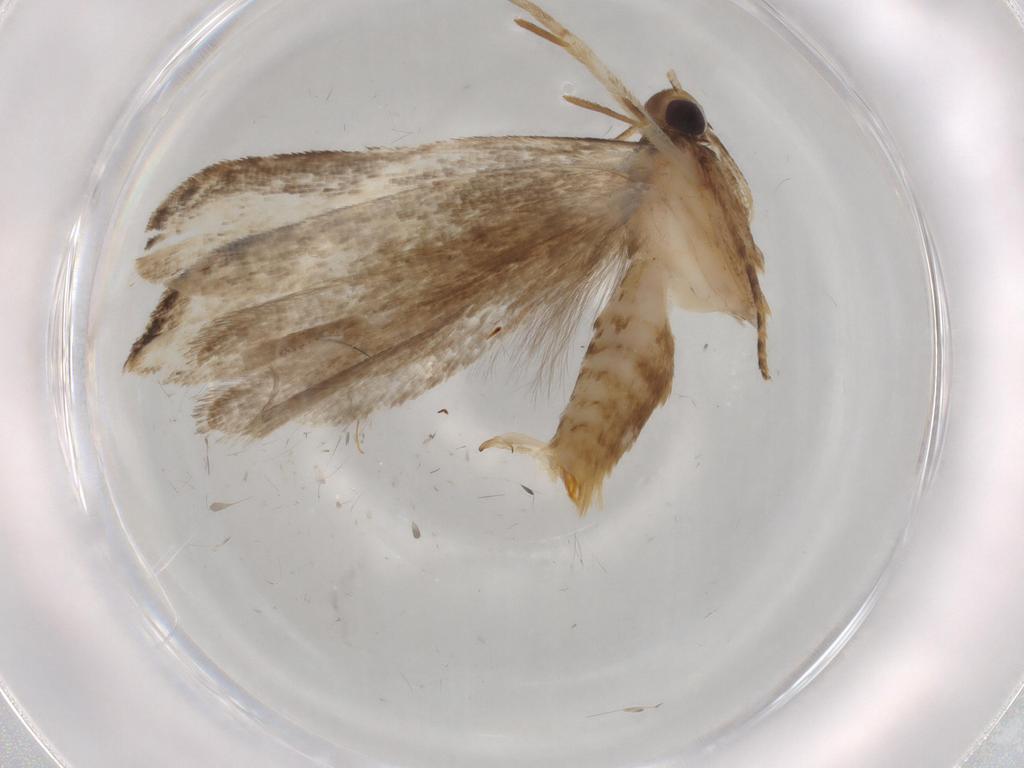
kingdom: Animalia
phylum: Arthropoda
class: Insecta
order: Lepidoptera
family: Gelechiidae
